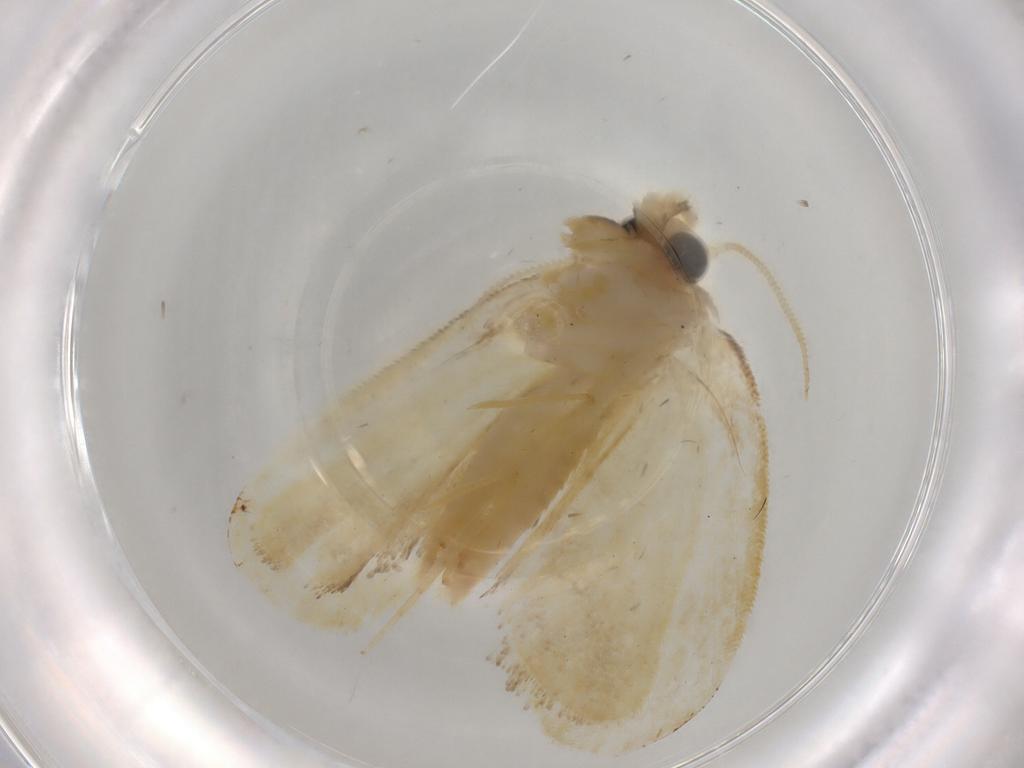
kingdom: Animalia
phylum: Arthropoda
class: Insecta
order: Lepidoptera
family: Psychidae
